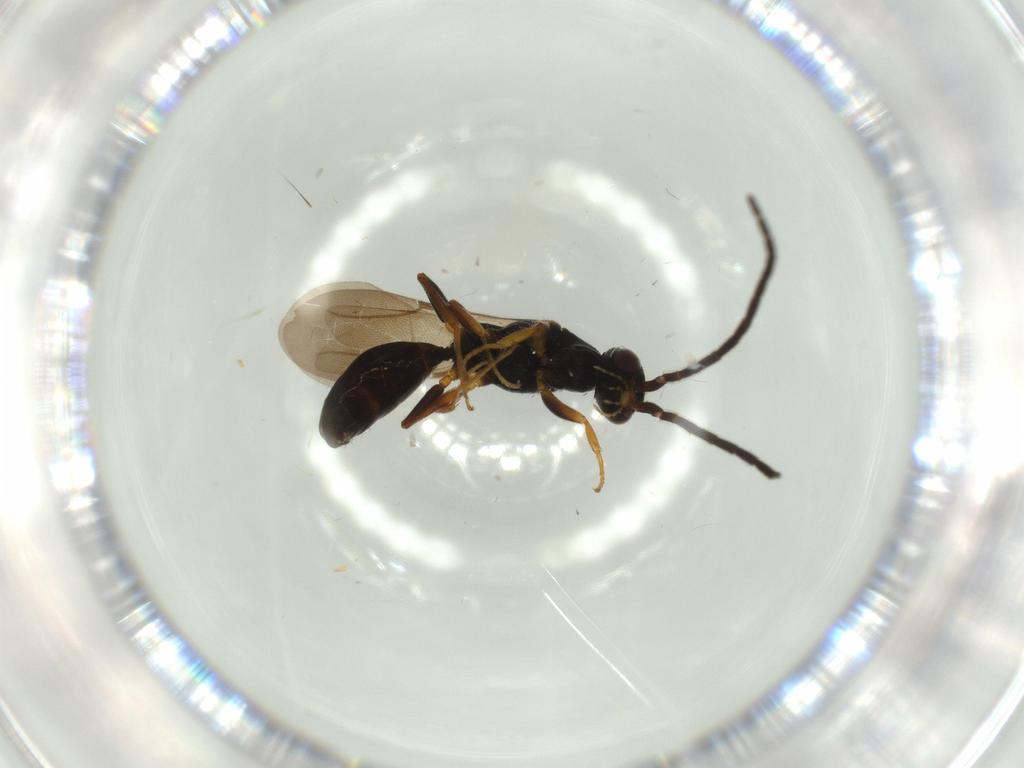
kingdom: Animalia
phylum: Arthropoda
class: Insecta
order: Hymenoptera
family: Bethylidae
